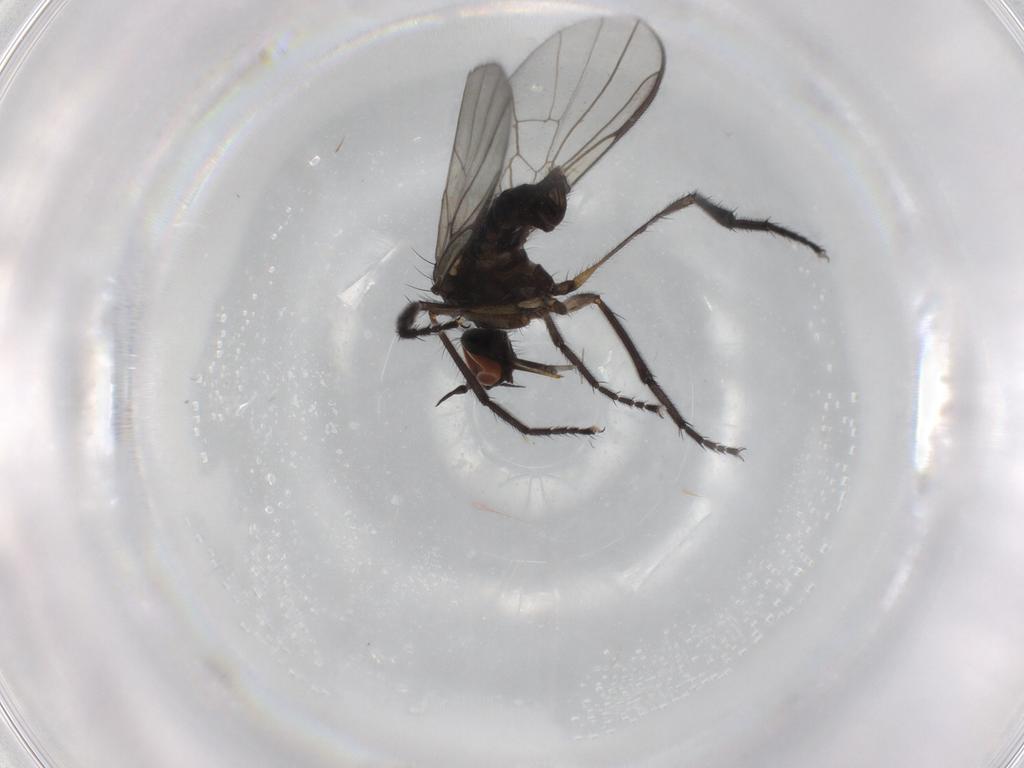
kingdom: Animalia
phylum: Arthropoda
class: Insecta
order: Diptera
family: Empididae
